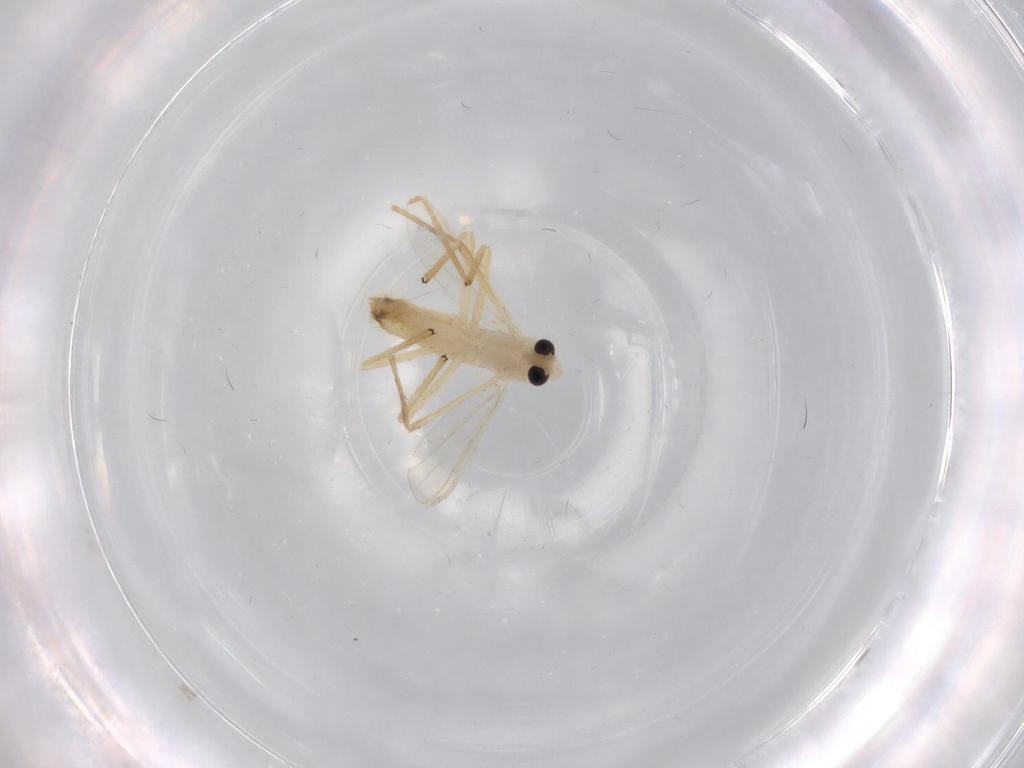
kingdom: Animalia
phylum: Arthropoda
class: Insecta
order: Diptera
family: Chironomidae
